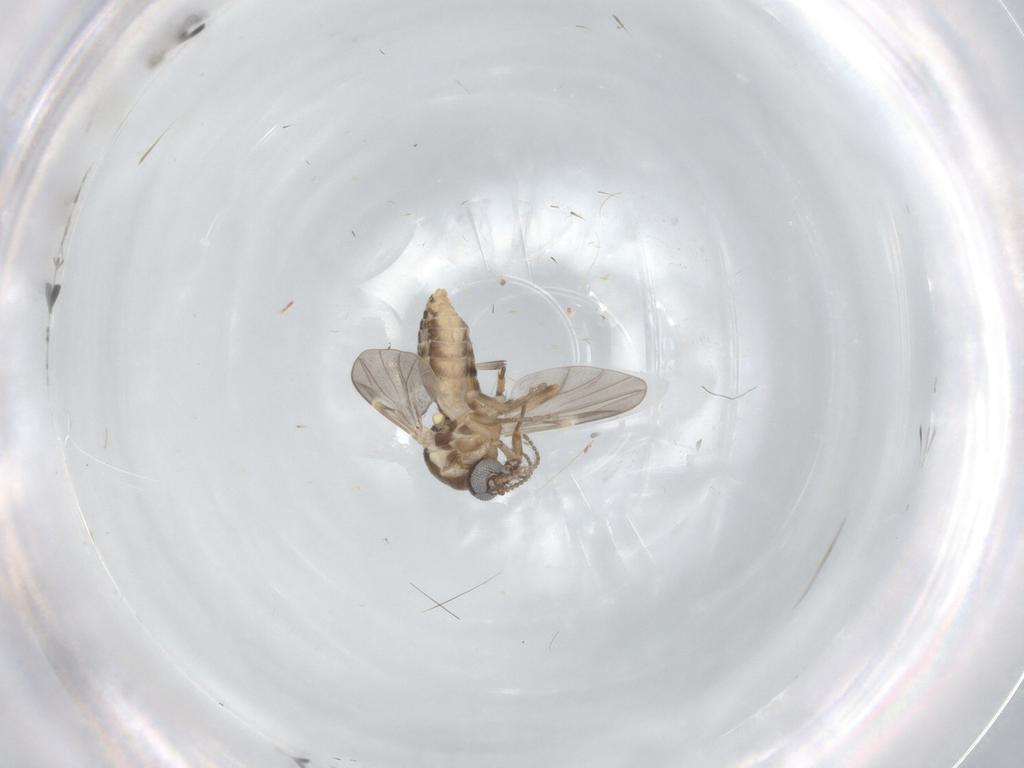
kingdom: Animalia
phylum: Arthropoda
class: Insecta
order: Diptera
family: Ceratopogonidae
